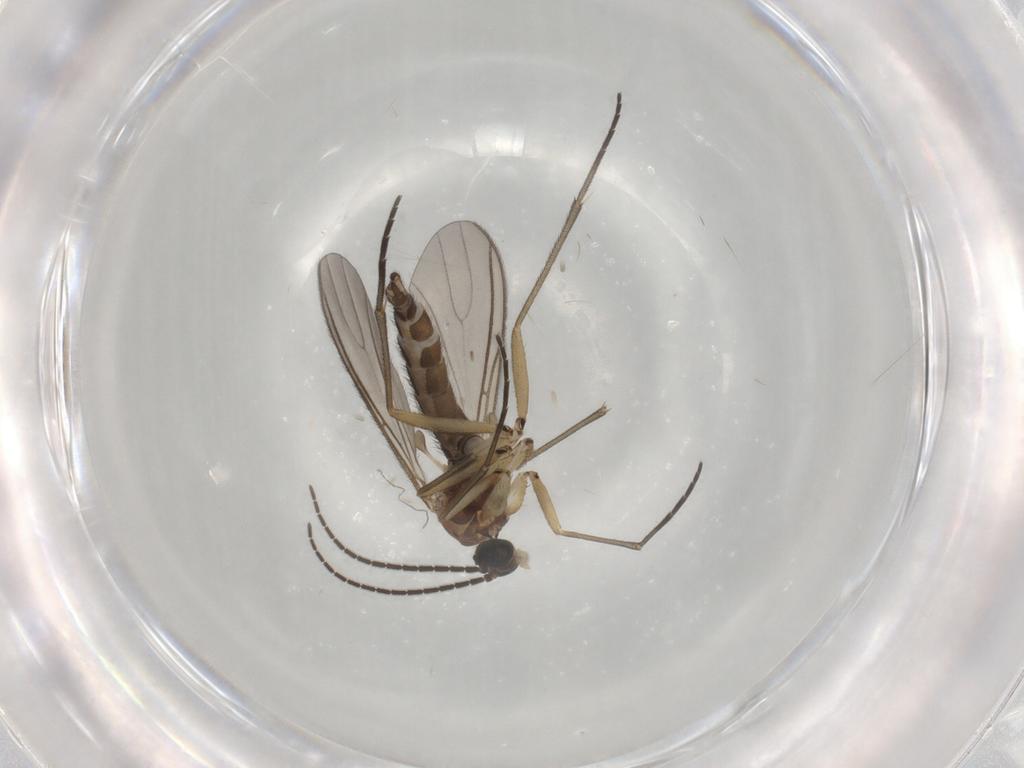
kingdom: Animalia
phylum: Arthropoda
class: Insecta
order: Diptera
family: Sciaridae
